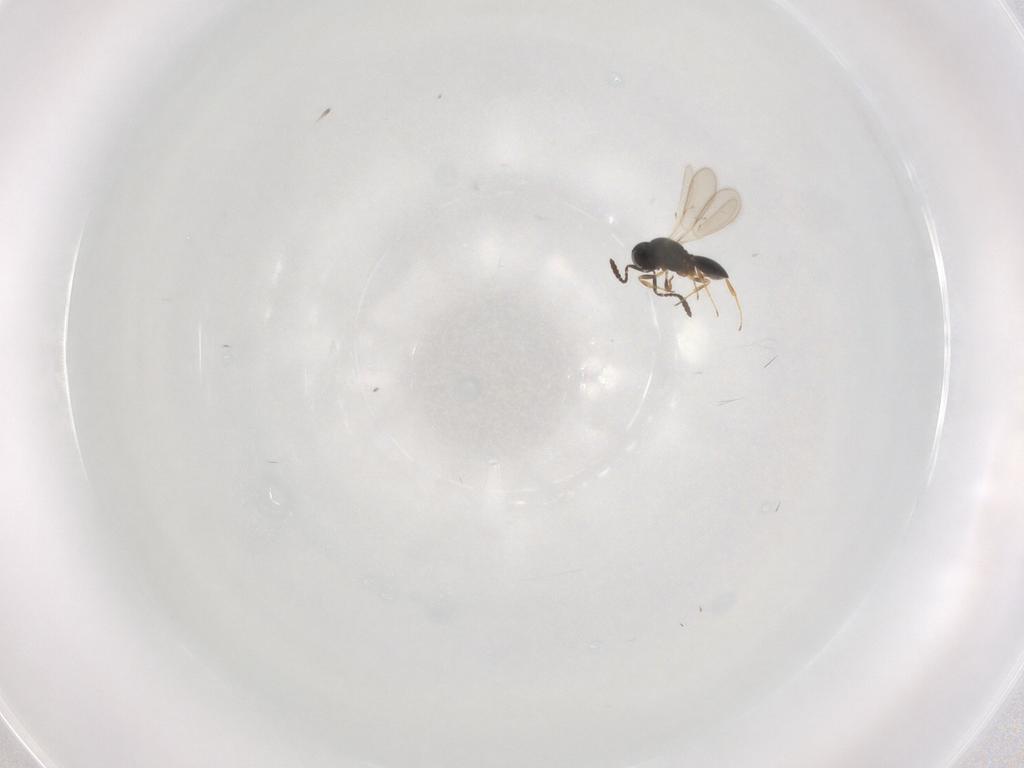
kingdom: Animalia
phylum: Arthropoda
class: Insecta
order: Hymenoptera
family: Scelionidae
